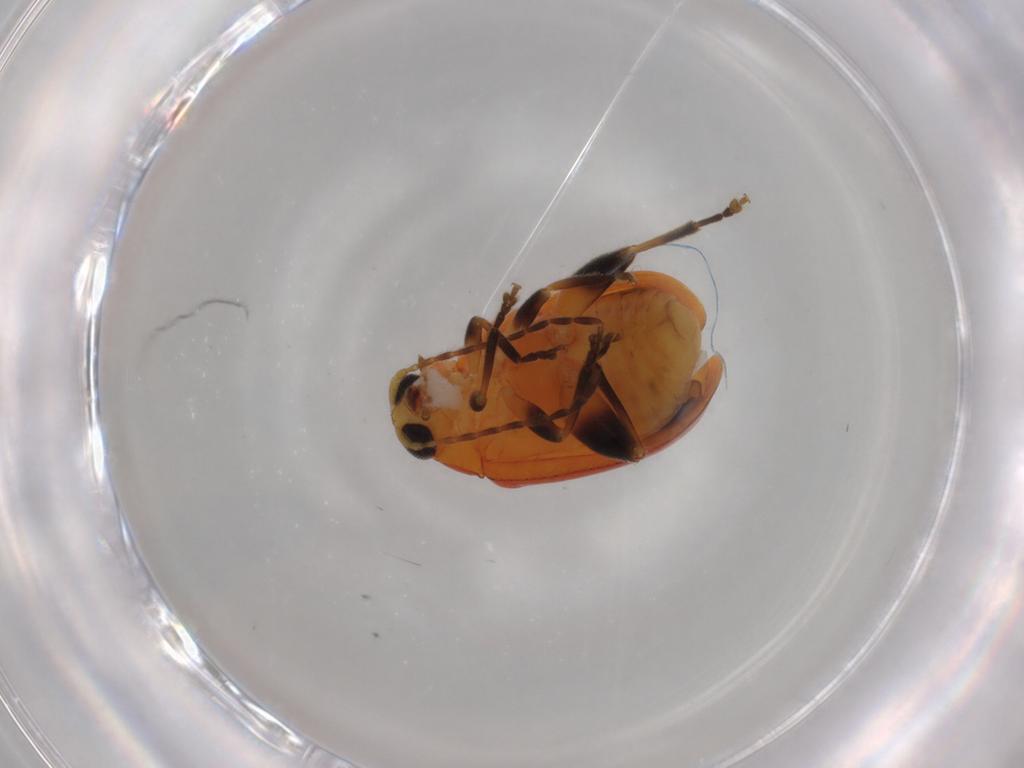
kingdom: Animalia
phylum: Arthropoda
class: Insecta
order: Coleoptera
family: Chrysomelidae
